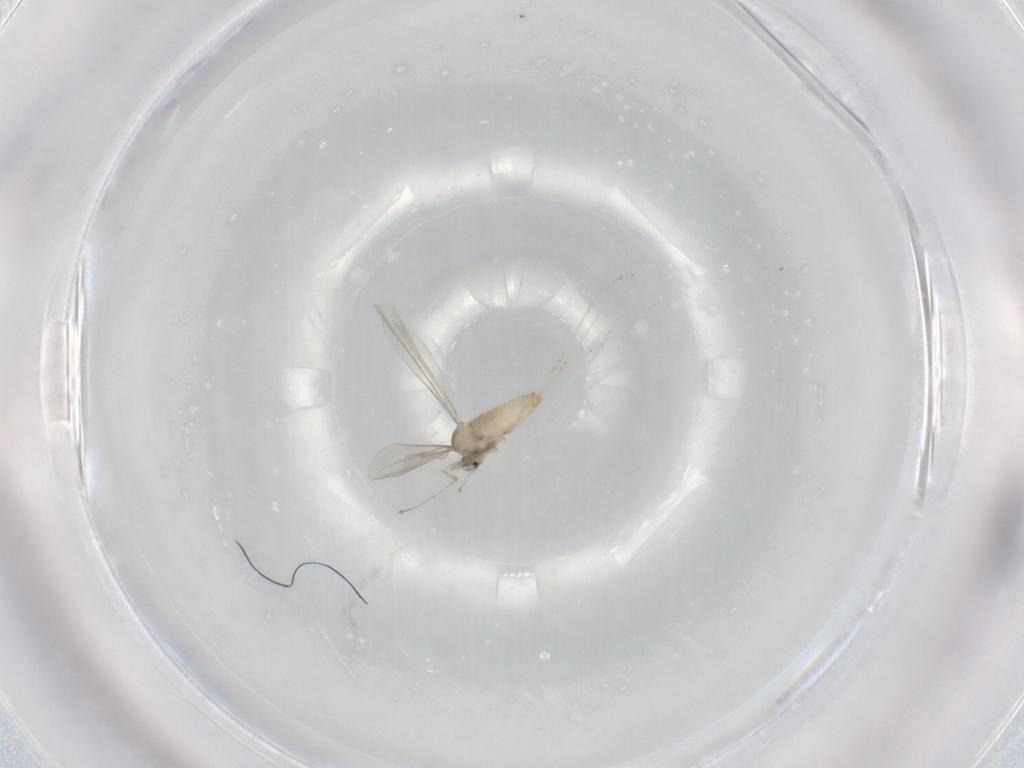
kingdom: Animalia
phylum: Arthropoda
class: Insecta
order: Diptera
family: Cecidomyiidae
